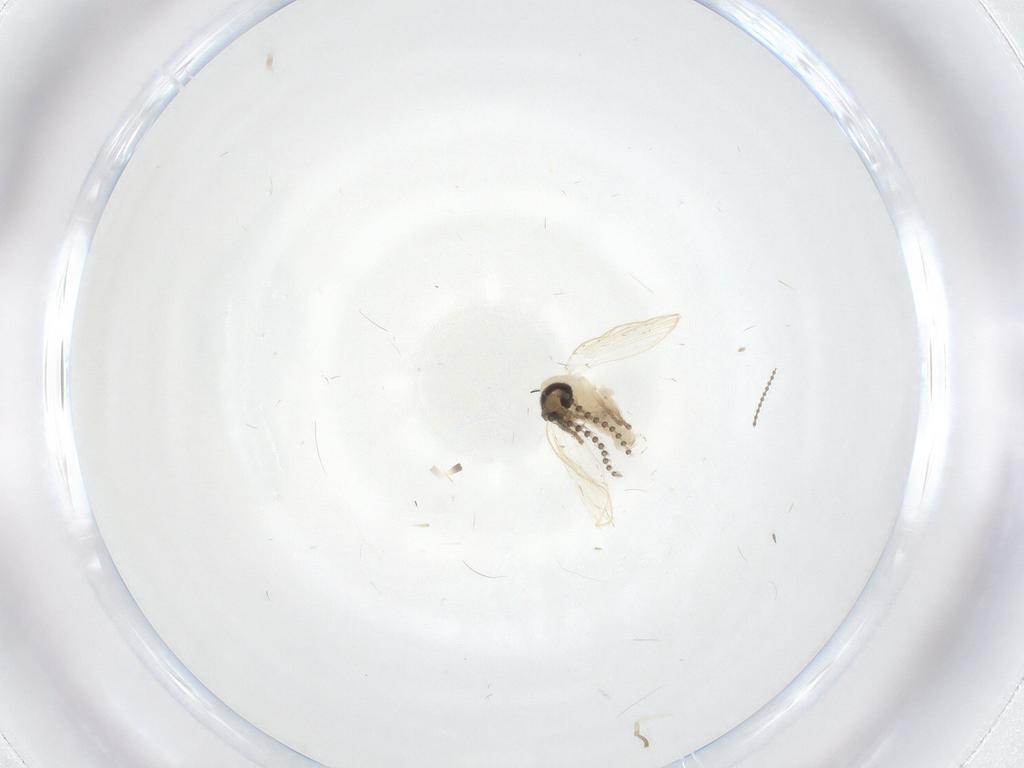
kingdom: Animalia
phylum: Arthropoda
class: Insecta
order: Diptera
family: Psychodidae
